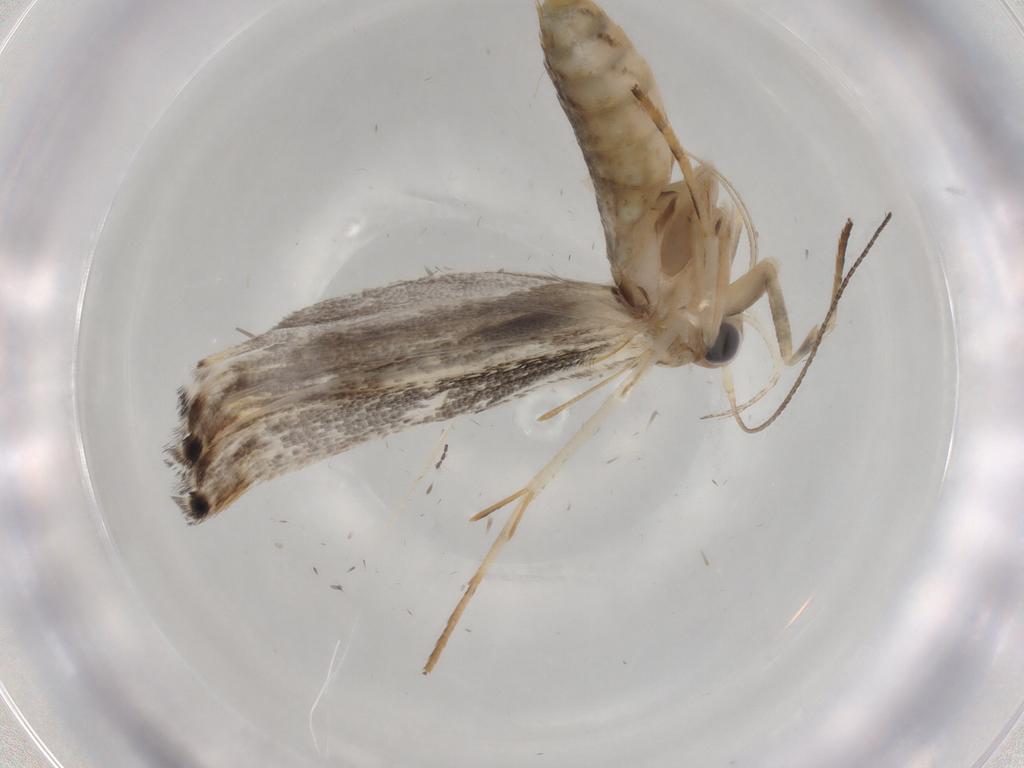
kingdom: Animalia
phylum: Arthropoda
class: Insecta
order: Lepidoptera
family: Gelechiidae
